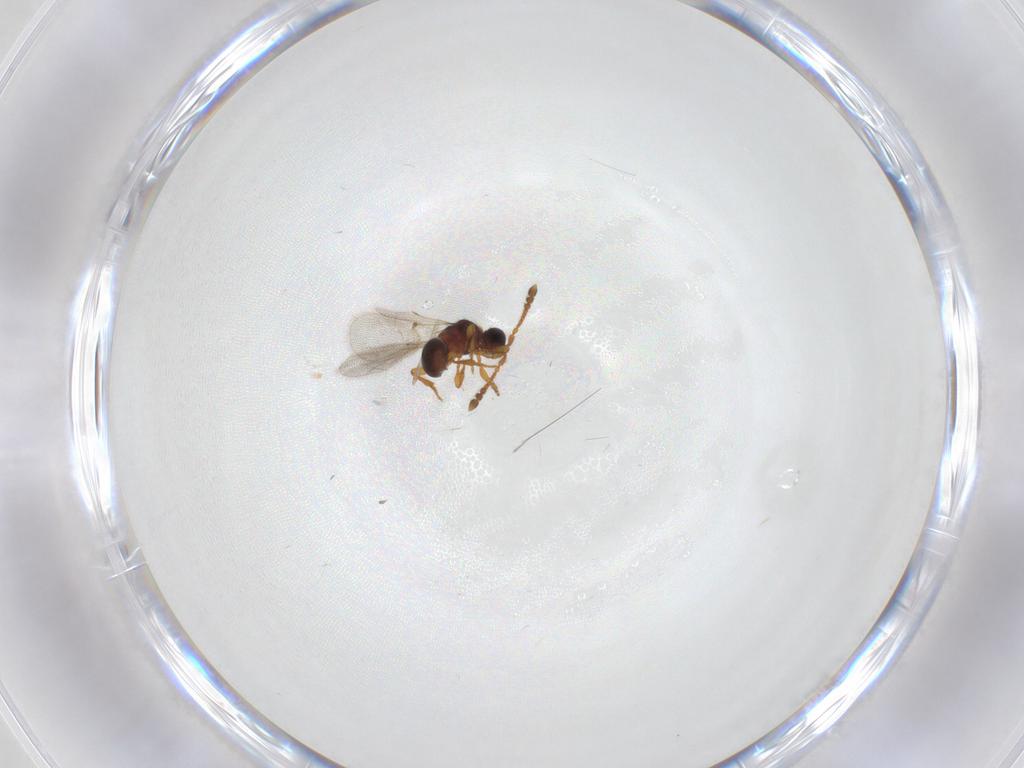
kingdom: Animalia
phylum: Arthropoda
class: Insecta
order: Hymenoptera
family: Diapriidae
